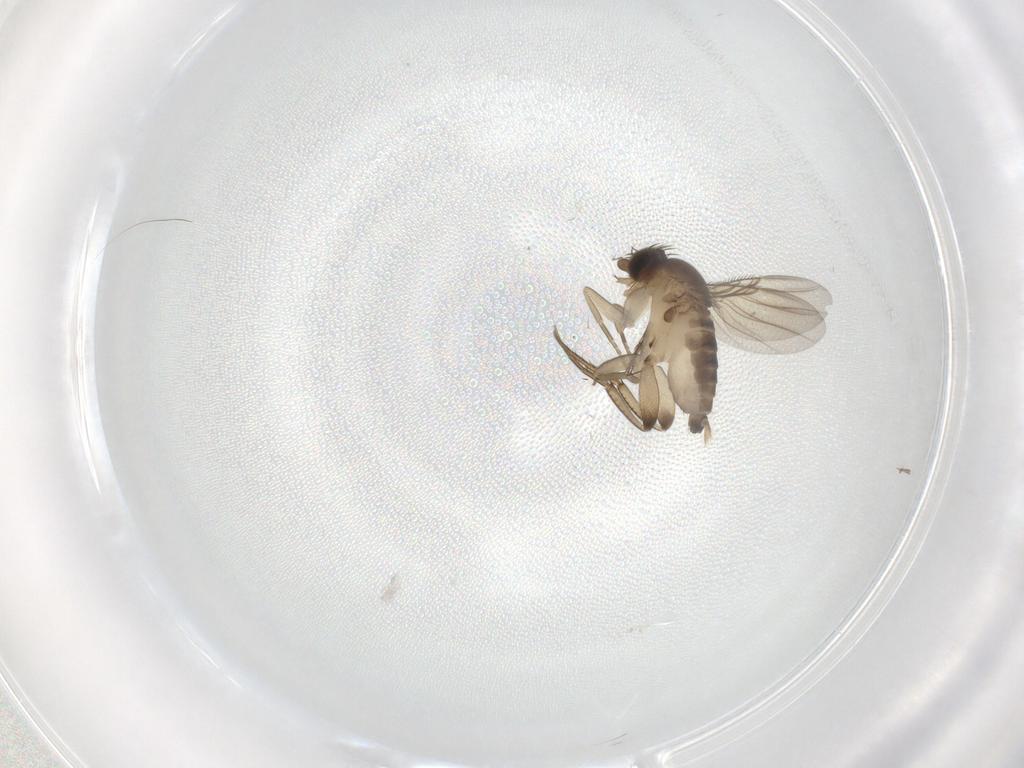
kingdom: Animalia
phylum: Arthropoda
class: Insecta
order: Diptera
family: Phoridae
